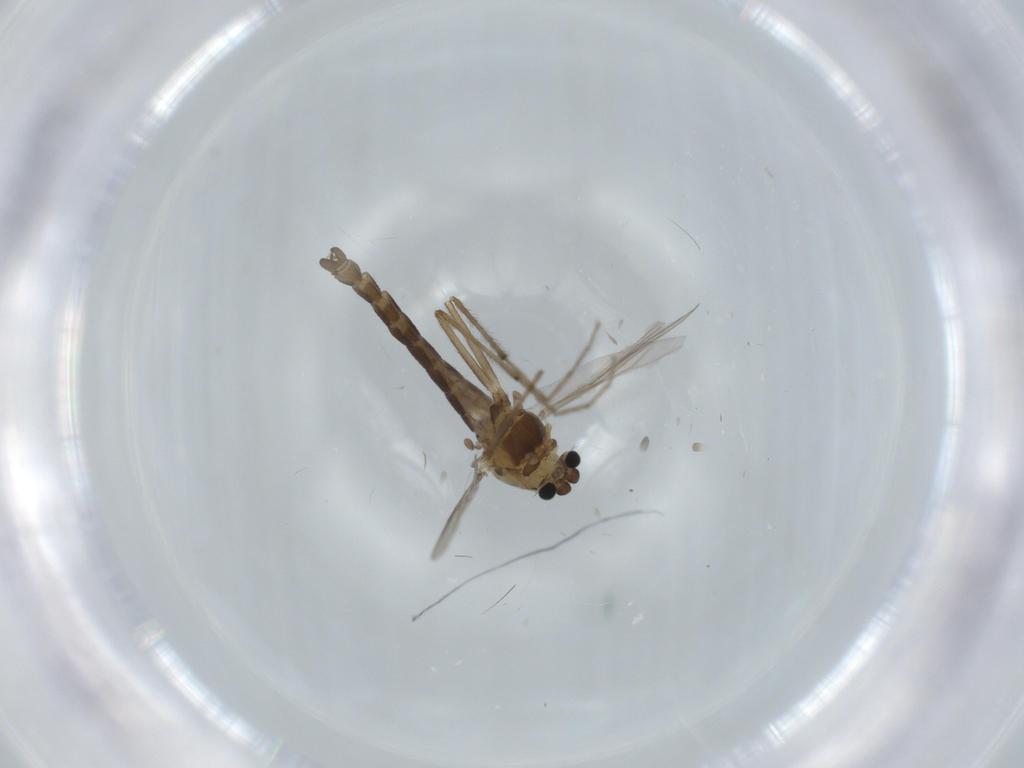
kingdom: Animalia
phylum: Arthropoda
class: Insecta
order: Diptera
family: Chironomidae
